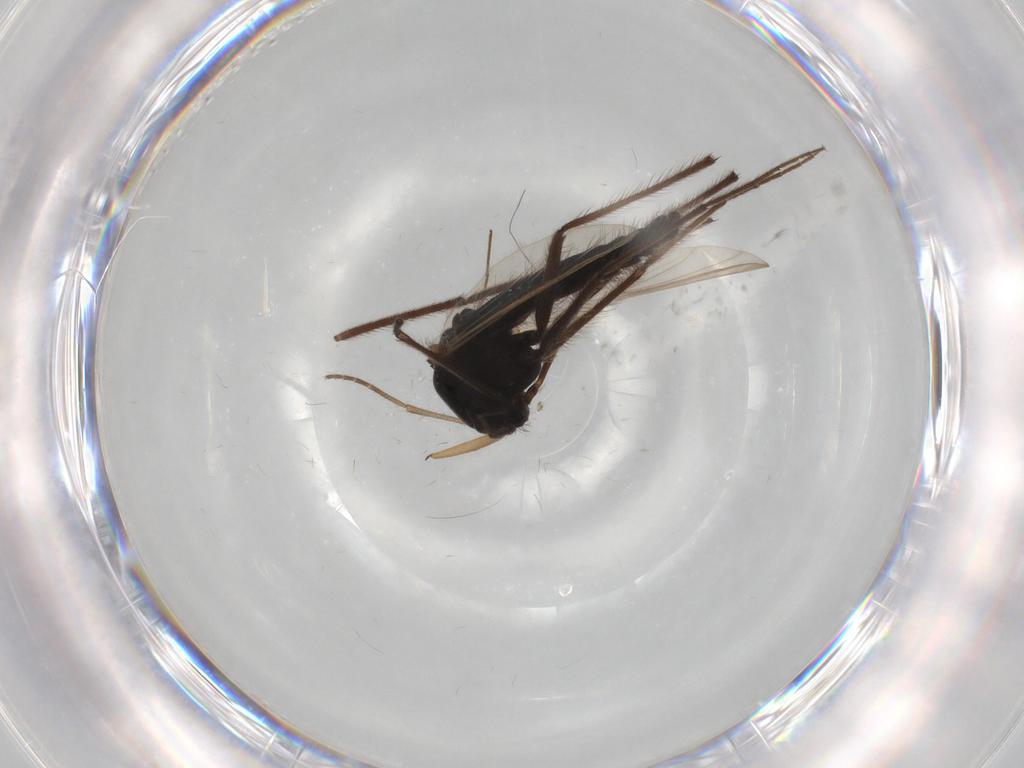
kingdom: Animalia
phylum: Arthropoda
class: Insecta
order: Diptera
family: Chironomidae
